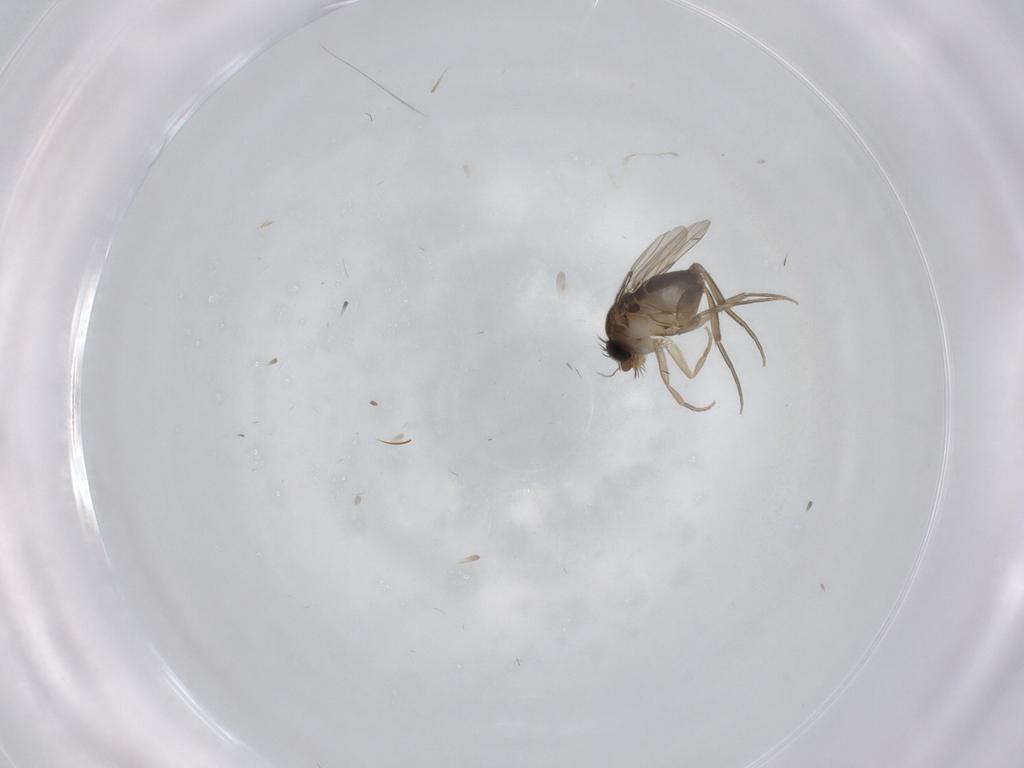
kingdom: Animalia
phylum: Arthropoda
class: Insecta
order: Diptera
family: Phoridae
